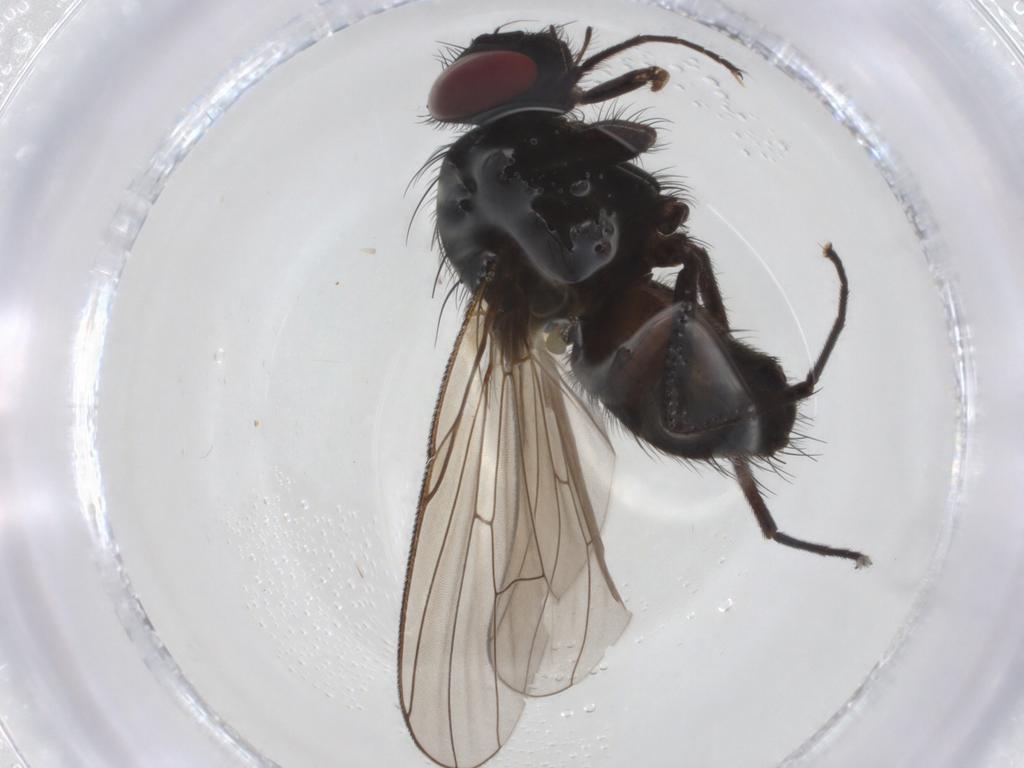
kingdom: Animalia
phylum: Arthropoda
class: Insecta
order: Diptera
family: Muscidae
